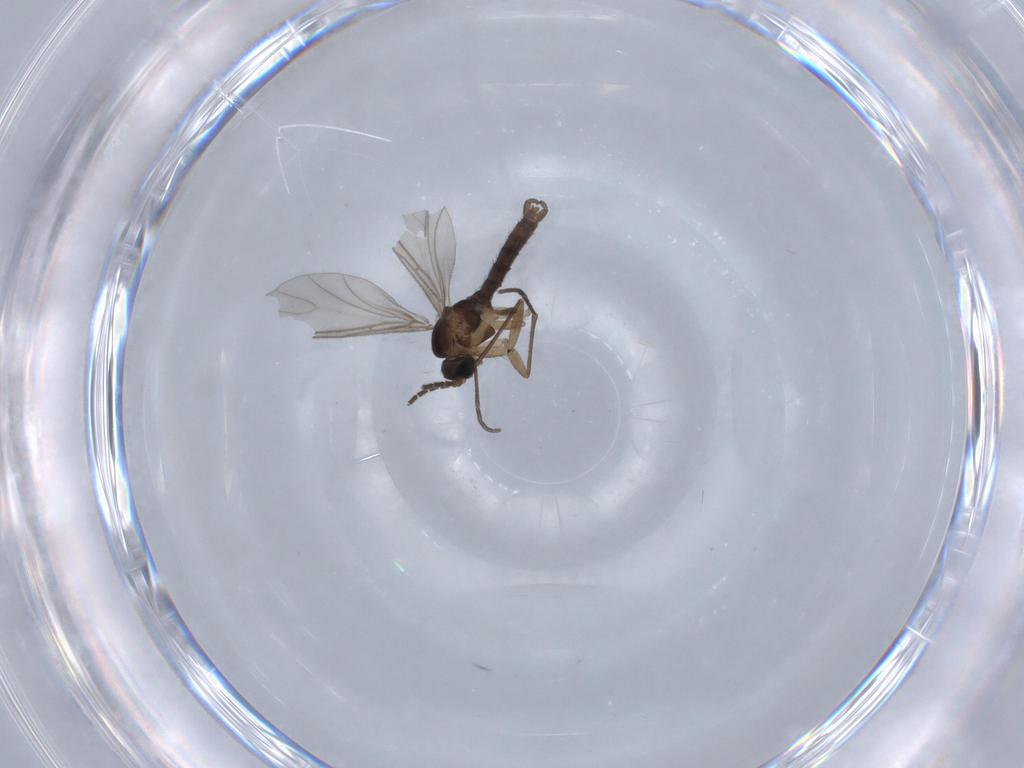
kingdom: Animalia
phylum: Arthropoda
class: Insecta
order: Diptera
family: Sciaridae
